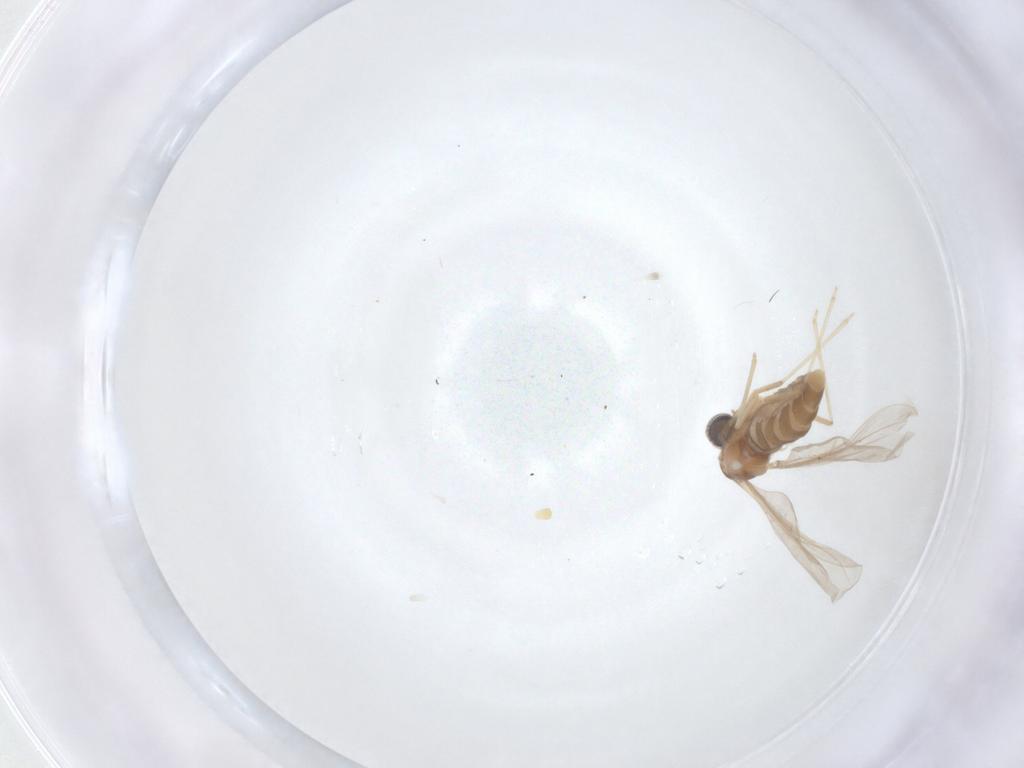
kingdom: Animalia
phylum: Arthropoda
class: Insecta
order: Diptera
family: Cecidomyiidae
